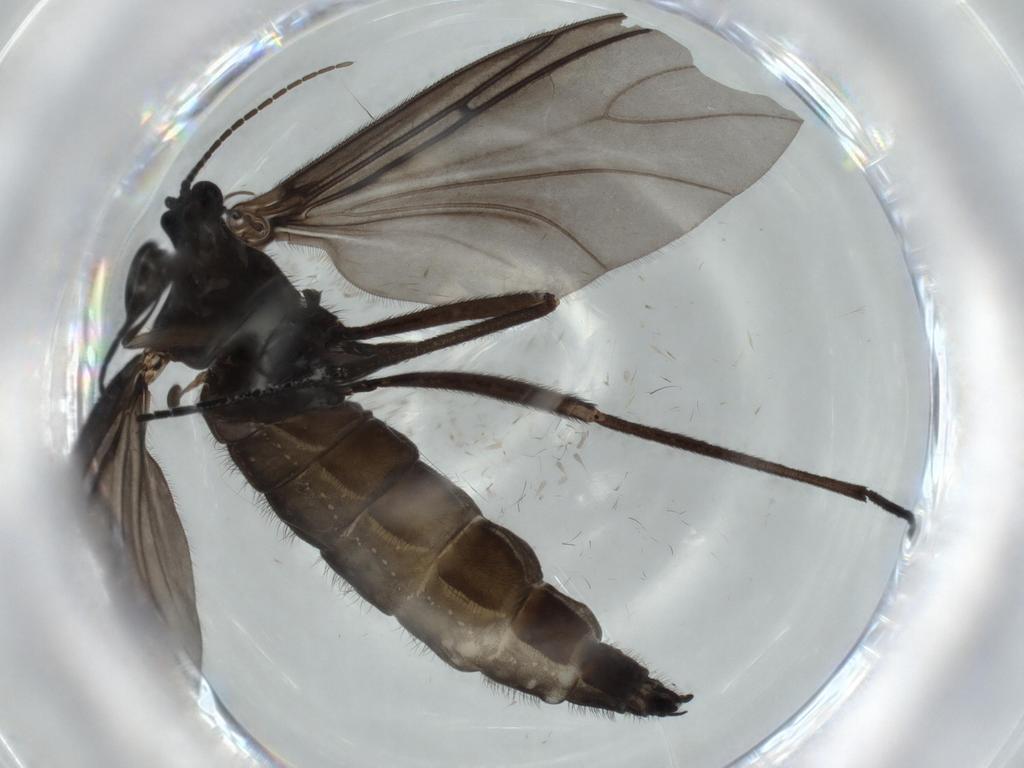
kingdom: Animalia
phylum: Arthropoda
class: Insecta
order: Diptera
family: Sciaridae
